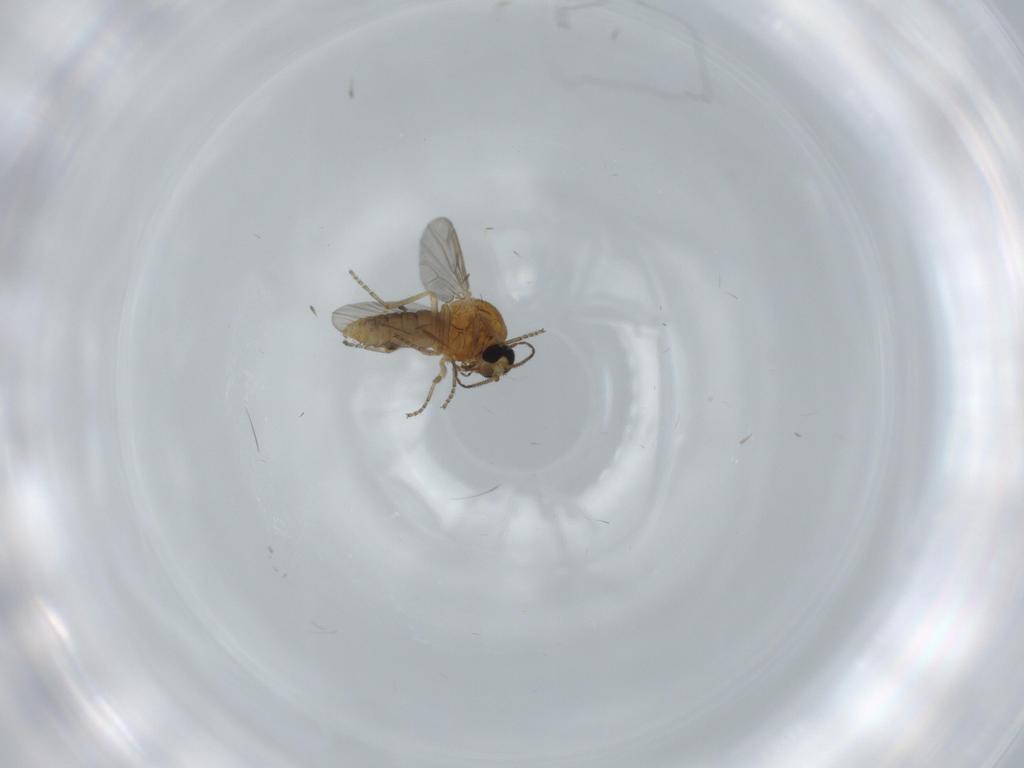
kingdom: Animalia
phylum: Arthropoda
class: Insecta
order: Diptera
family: Ceratopogonidae
